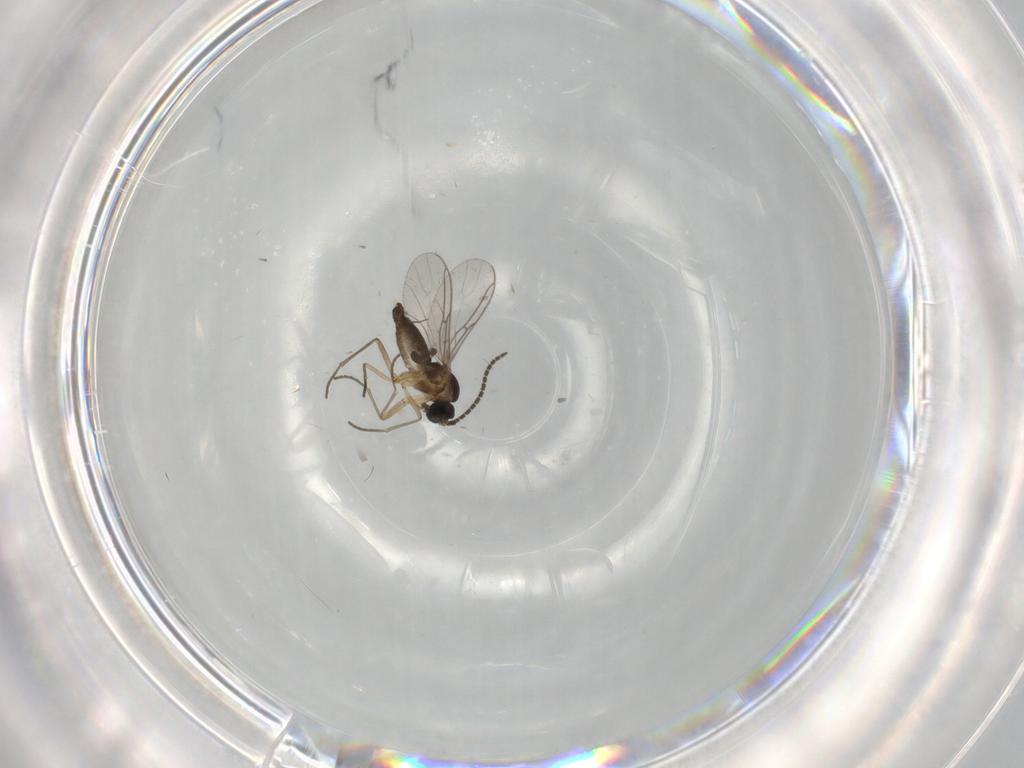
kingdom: Animalia
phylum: Arthropoda
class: Insecta
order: Diptera
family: Sciaridae
